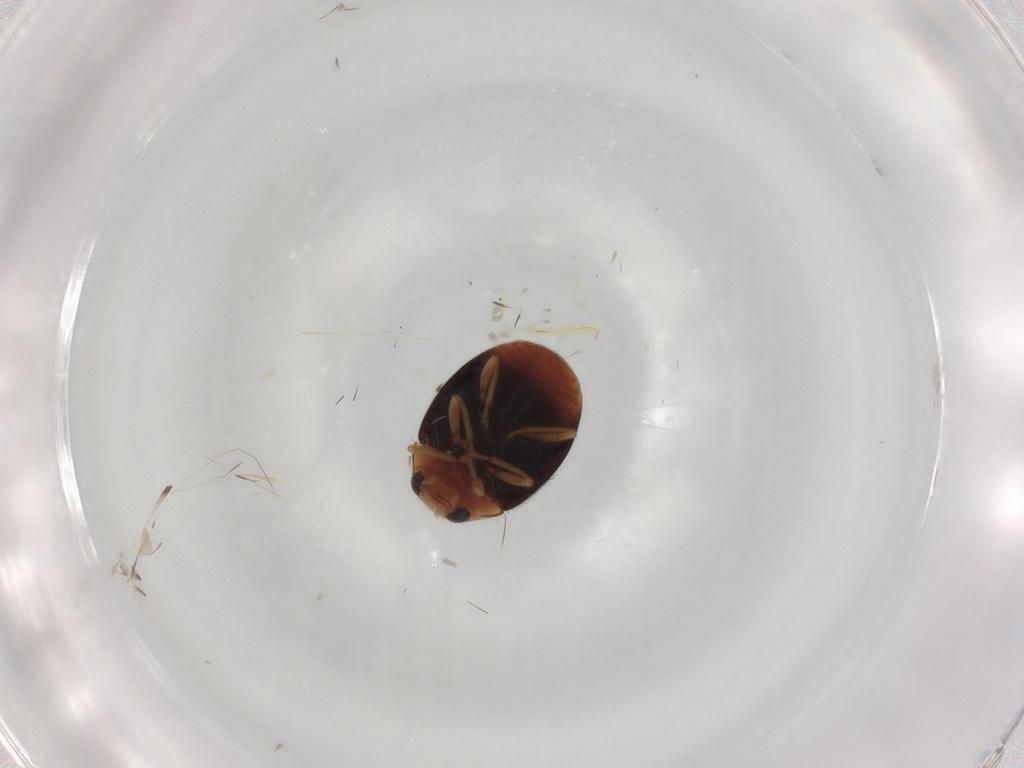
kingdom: Animalia
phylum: Arthropoda
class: Insecta
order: Coleoptera
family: Coccinellidae
